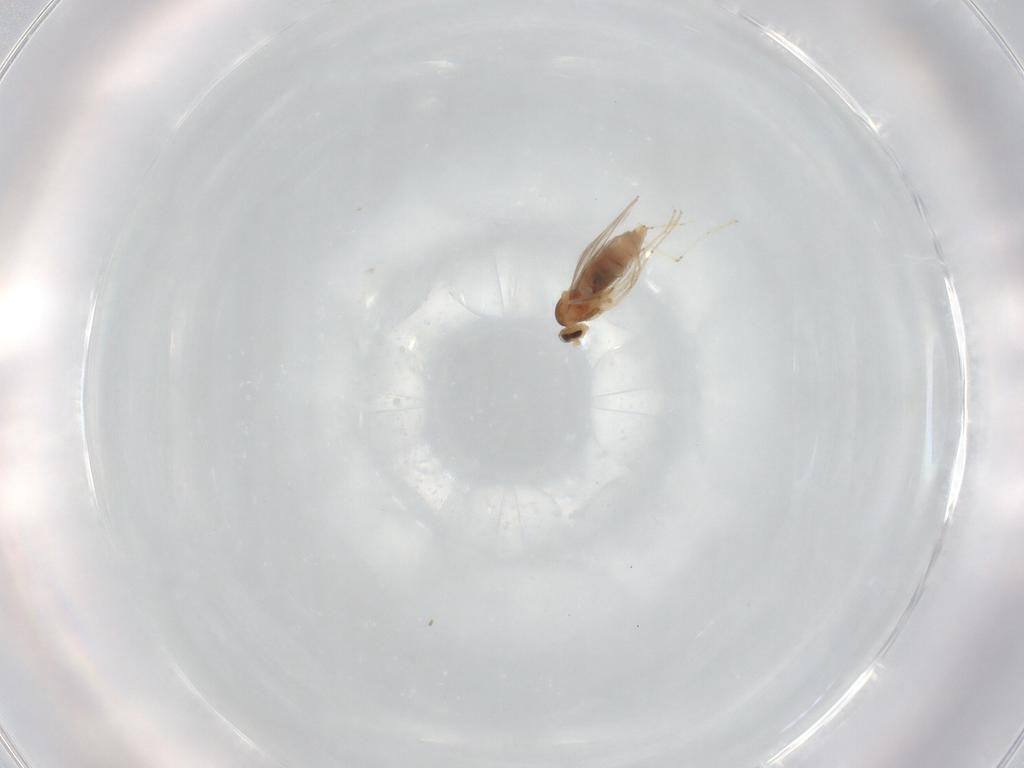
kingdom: Animalia
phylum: Arthropoda
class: Insecta
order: Diptera
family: Cecidomyiidae
